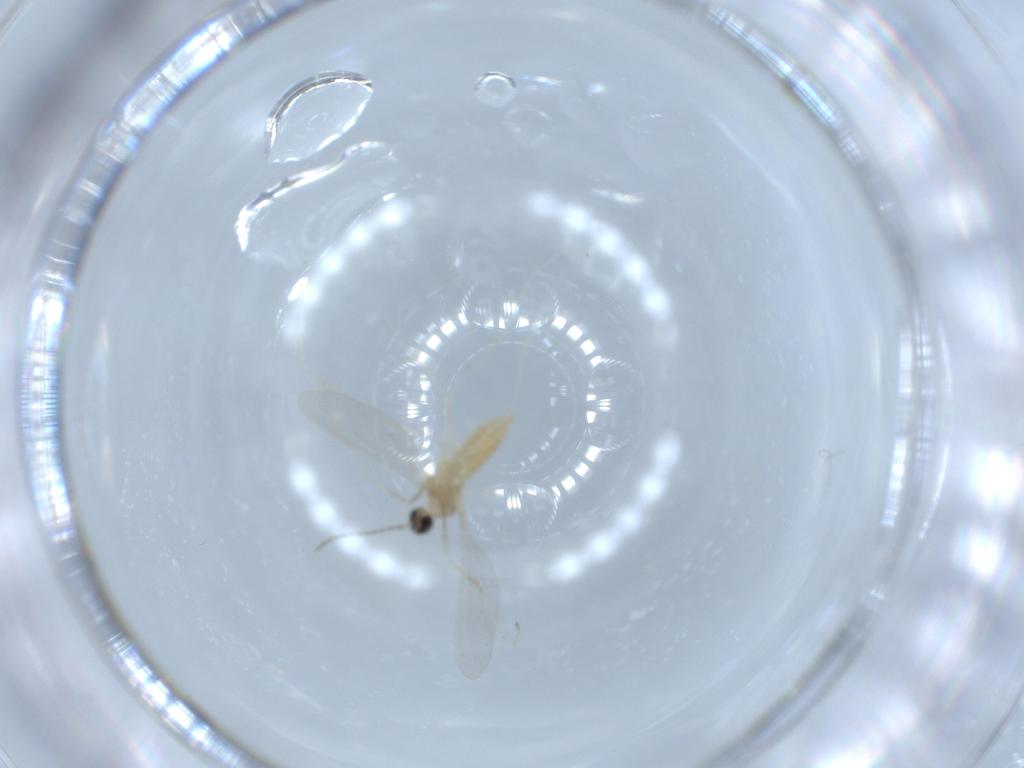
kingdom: Animalia
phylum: Arthropoda
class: Insecta
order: Diptera
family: Cecidomyiidae
